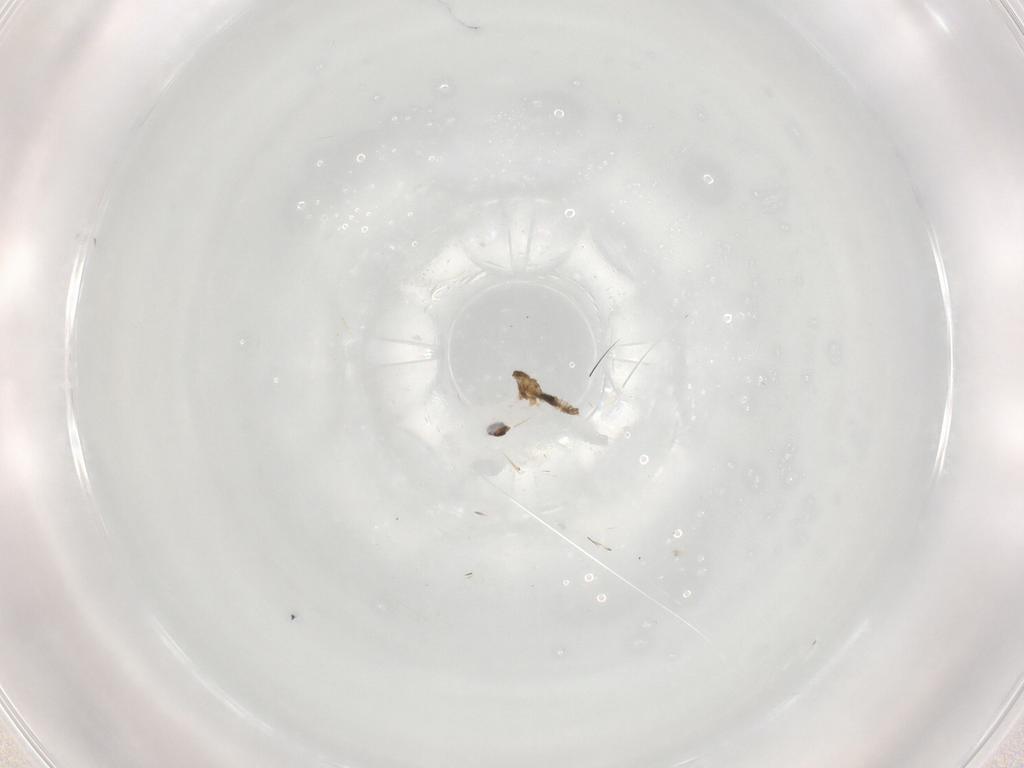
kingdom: Animalia
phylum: Arthropoda
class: Insecta
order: Diptera
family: Cecidomyiidae
